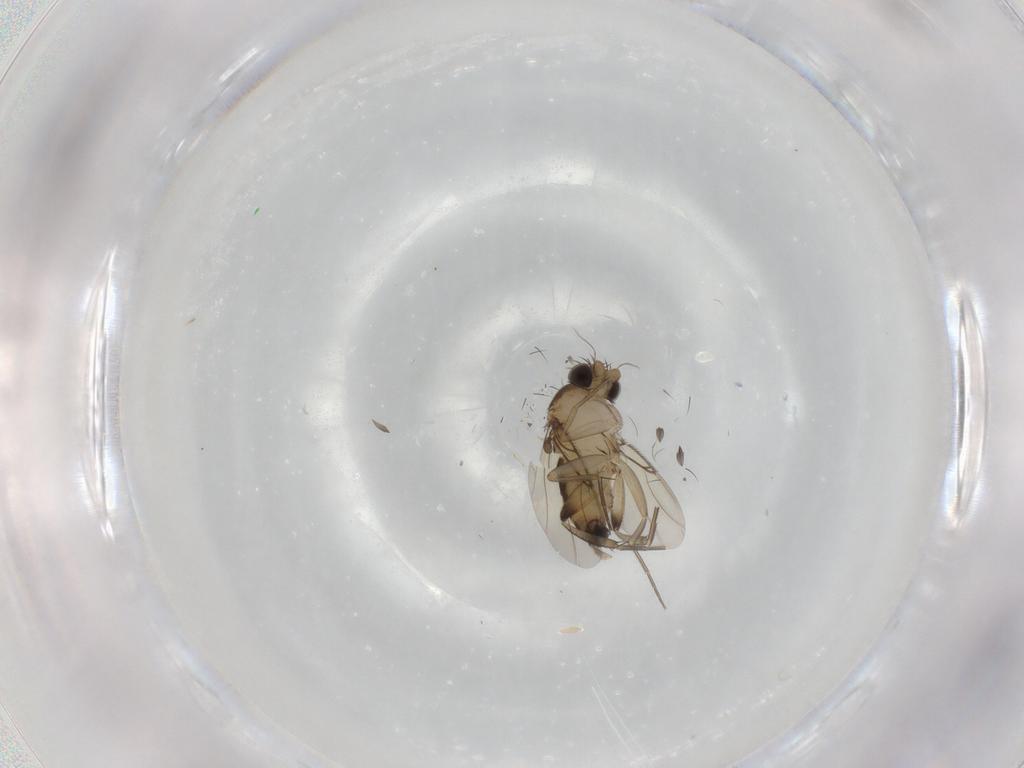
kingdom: Animalia
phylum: Arthropoda
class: Insecta
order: Diptera
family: Phoridae
